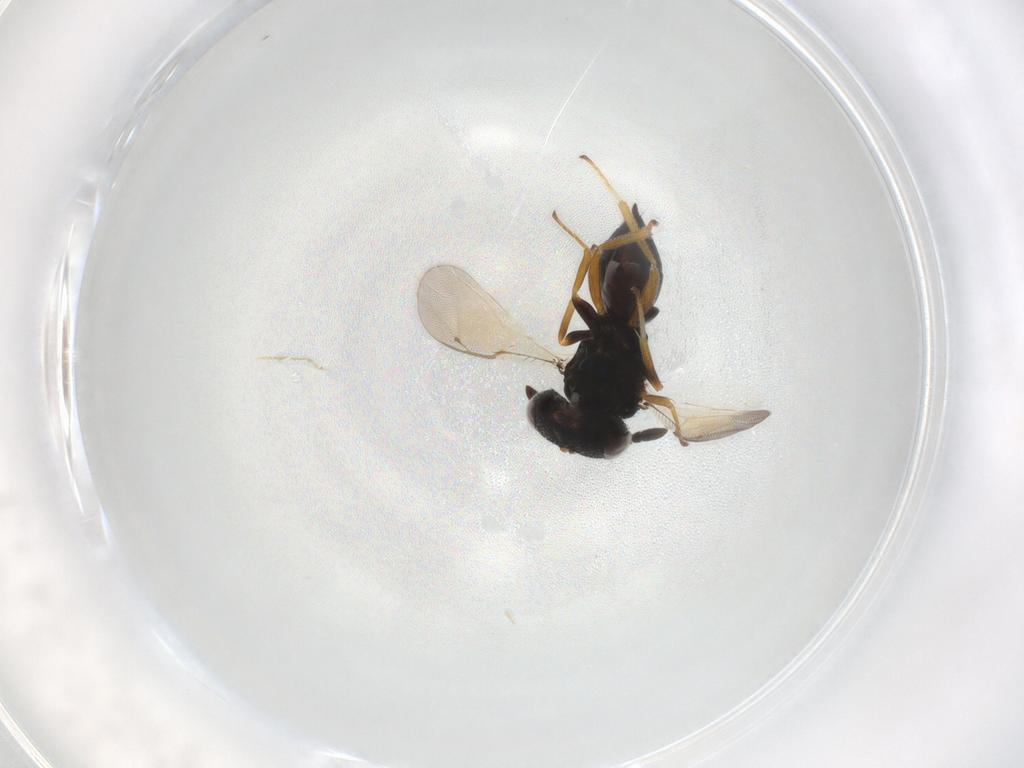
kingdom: Animalia
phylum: Arthropoda
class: Insecta
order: Hymenoptera
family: Pteromalidae
